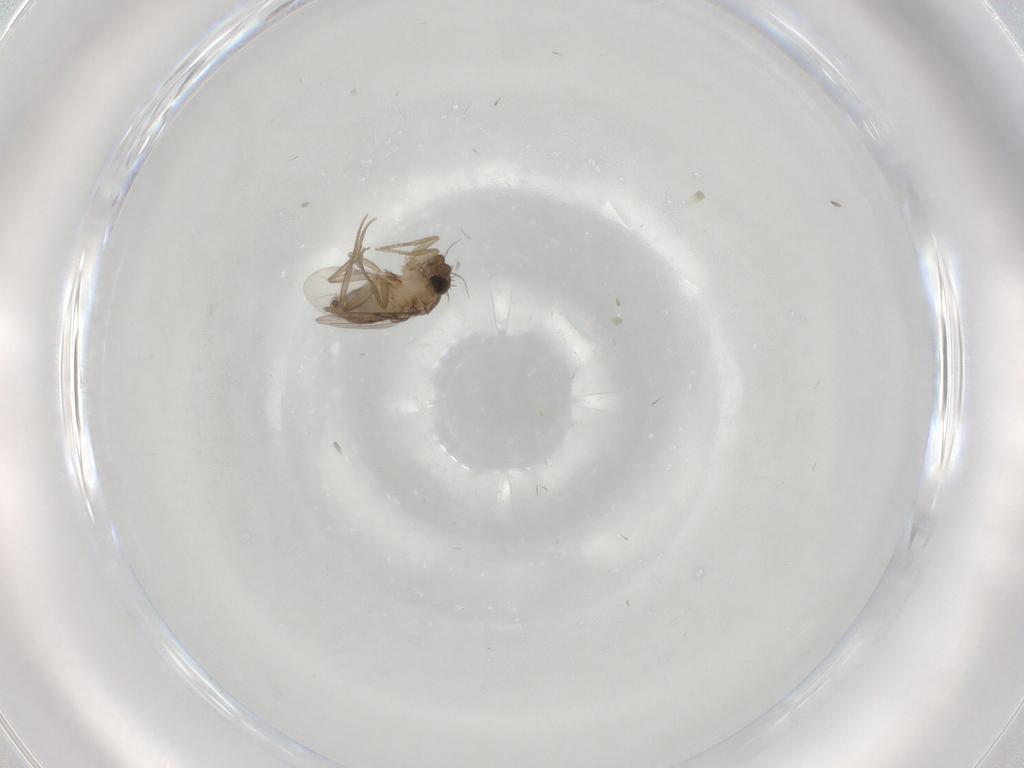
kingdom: Animalia
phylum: Arthropoda
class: Insecta
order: Diptera
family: Phoridae
